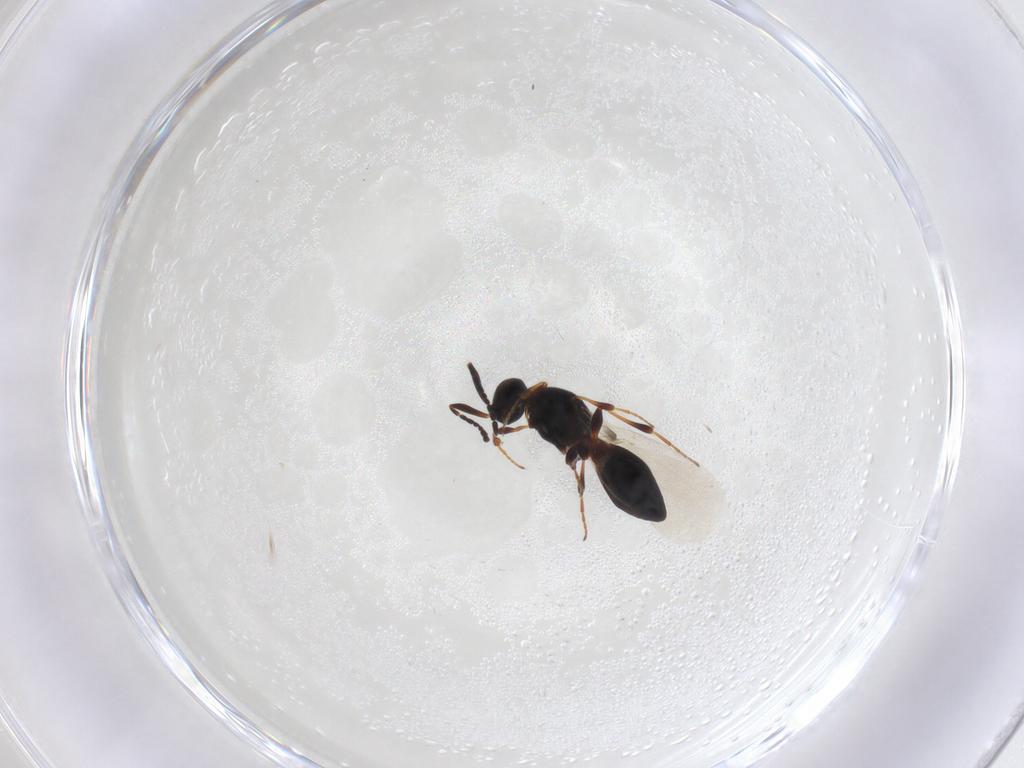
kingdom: Animalia
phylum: Arthropoda
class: Insecta
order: Hymenoptera
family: Platygastridae
